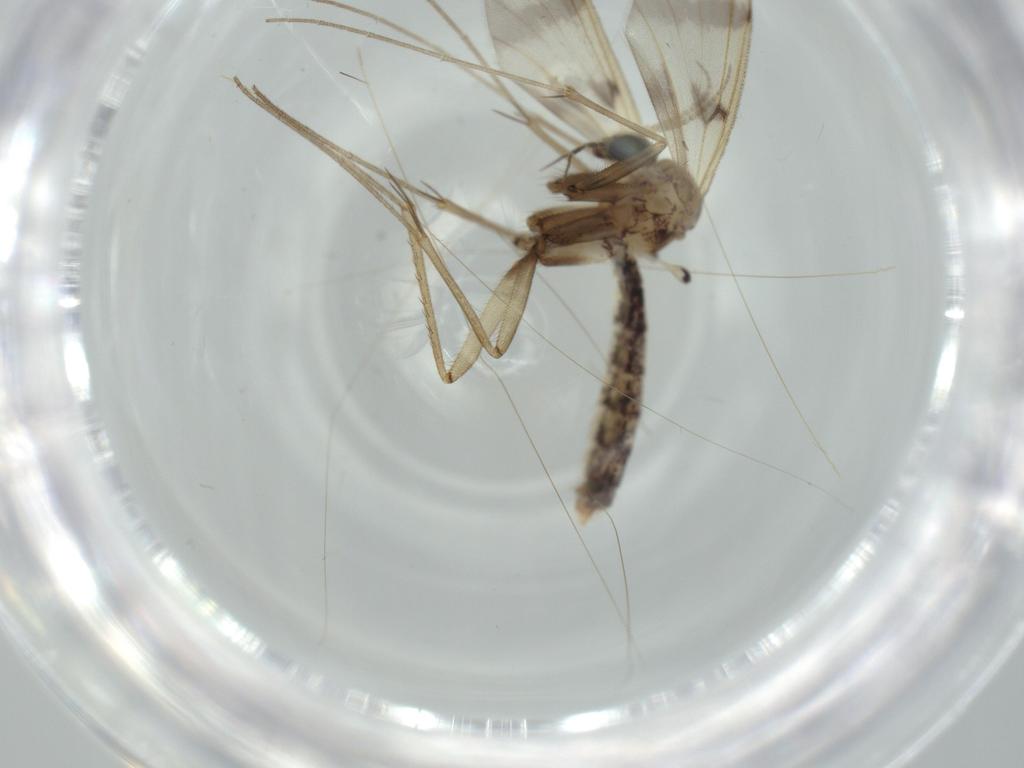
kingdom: Animalia
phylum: Arthropoda
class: Insecta
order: Diptera
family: Mycetophilidae
